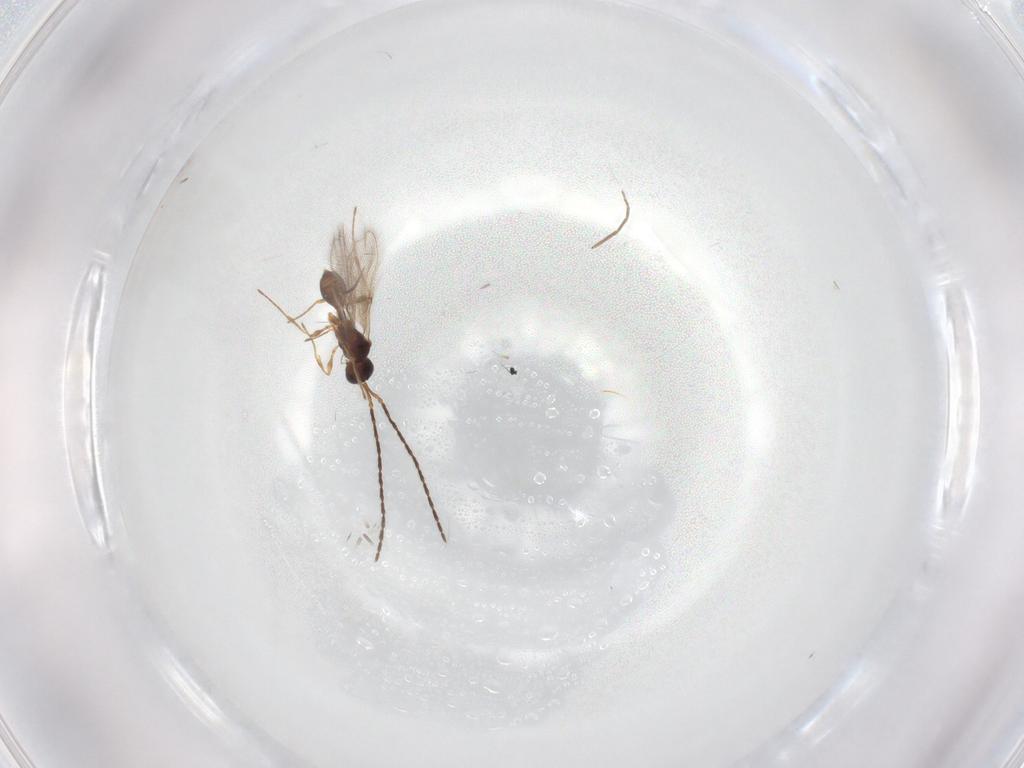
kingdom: Animalia
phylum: Arthropoda
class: Insecta
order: Hymenoptera
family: Diapriidae
